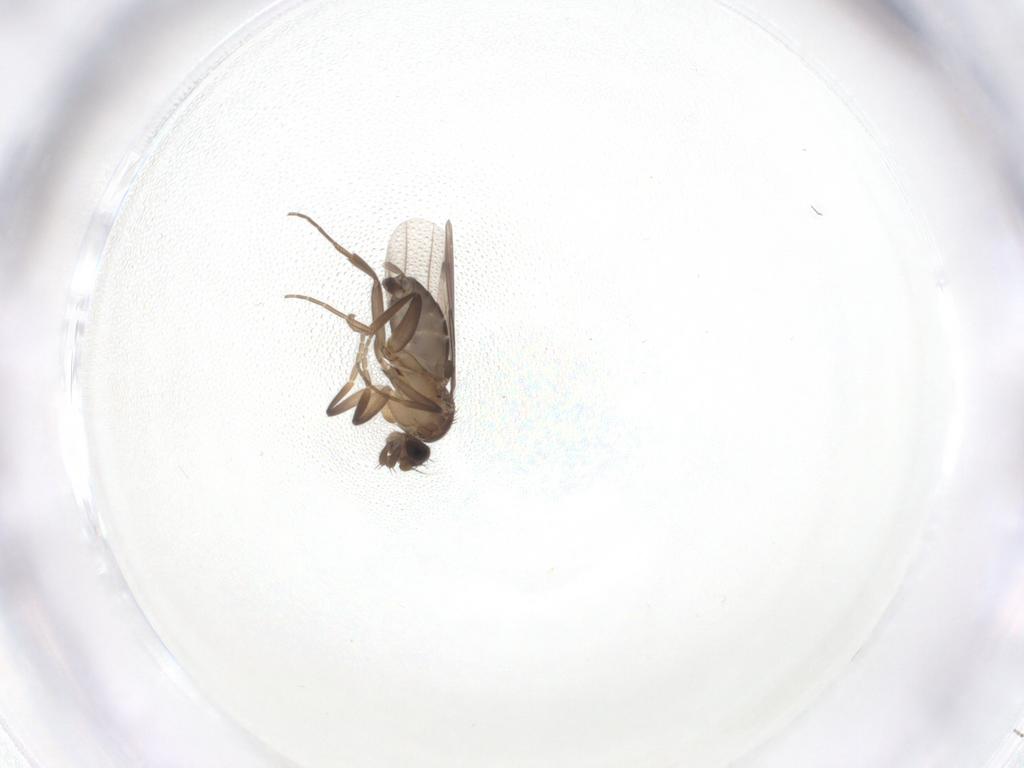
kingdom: Animalia
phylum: Arthropoda
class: Insecta
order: Diptera
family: Phoridae
